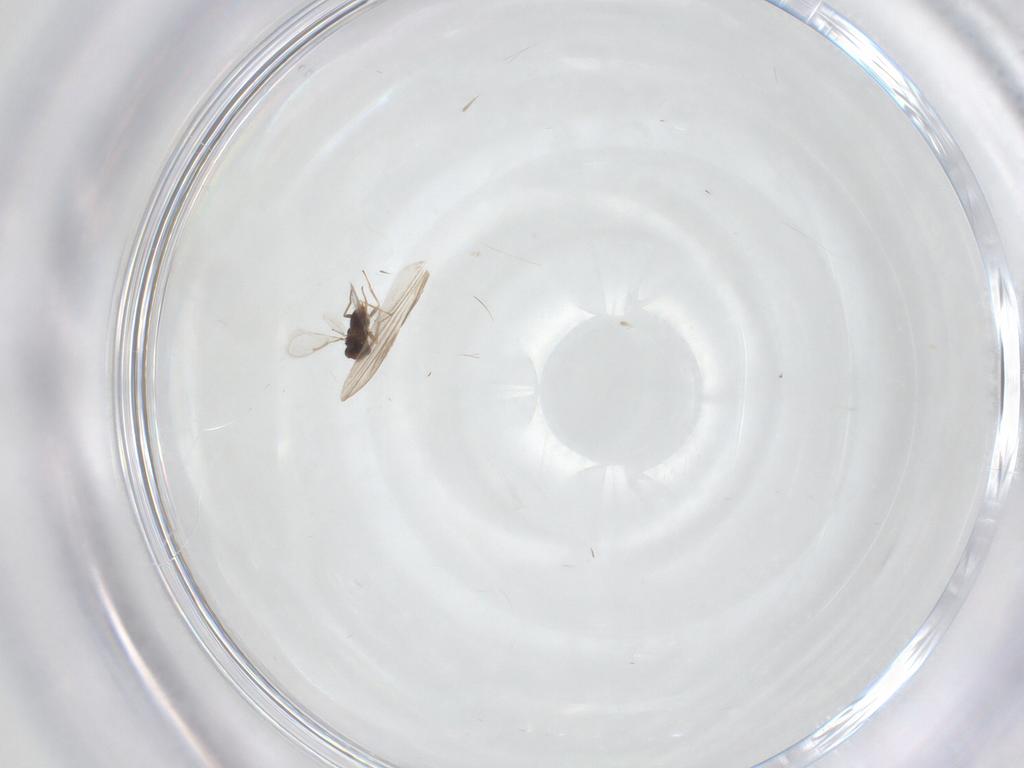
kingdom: Animalia
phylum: Arthropoda
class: Insecta
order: Diptera
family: Ceratopogonidae
